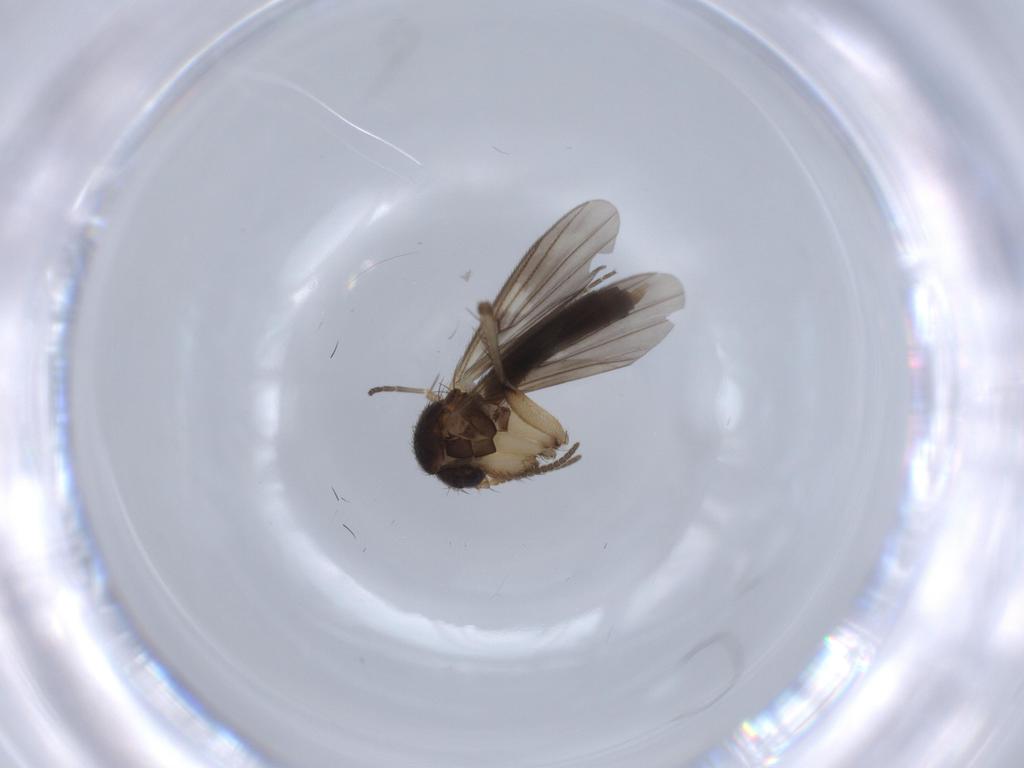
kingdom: Animalia
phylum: Arthropoda
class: Insecta
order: Diptera
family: Mycetophilidae
